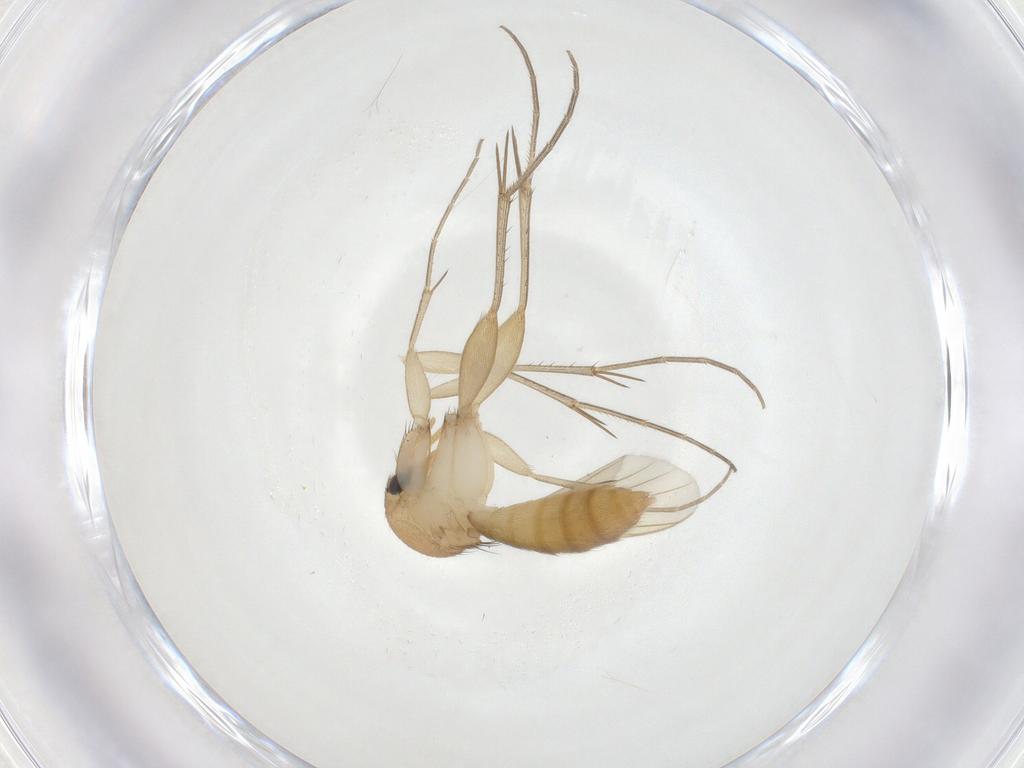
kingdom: Animalia
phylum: Arthropoda
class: Insecta
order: Diptera
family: Mycetophilidae
